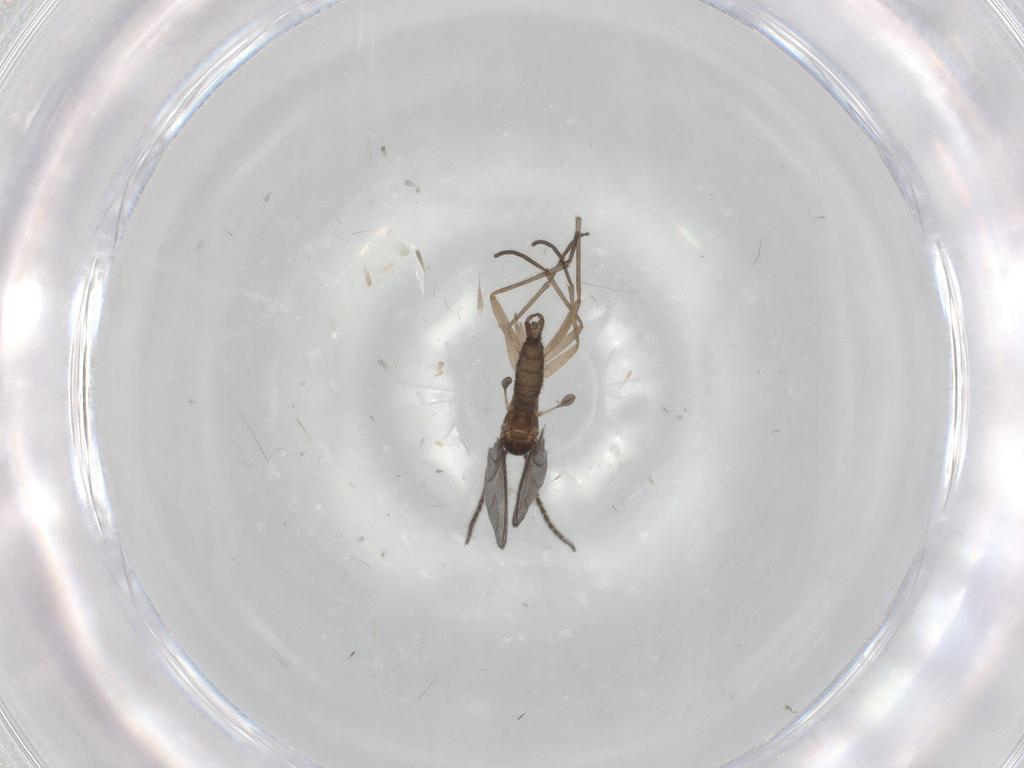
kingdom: Animalia
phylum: Arthropoda
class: Insecta
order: Diptera
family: Sciaridae
